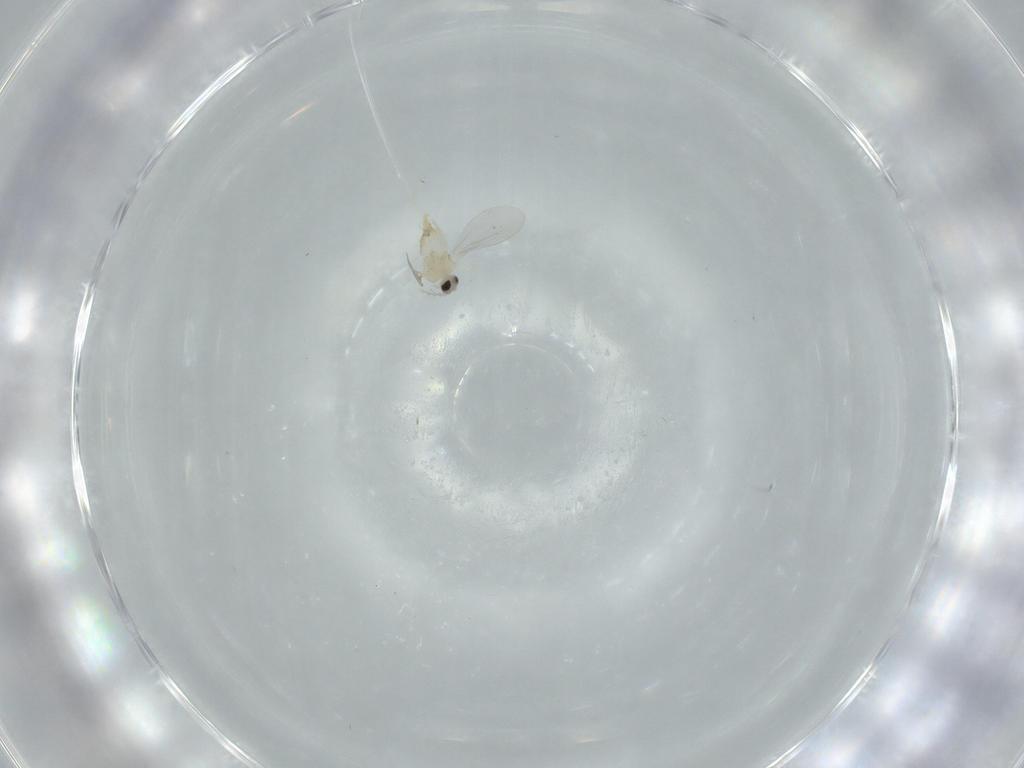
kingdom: Animalia
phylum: Arthropoda
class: Insecta
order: Diptera
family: Cecidomyiidae
